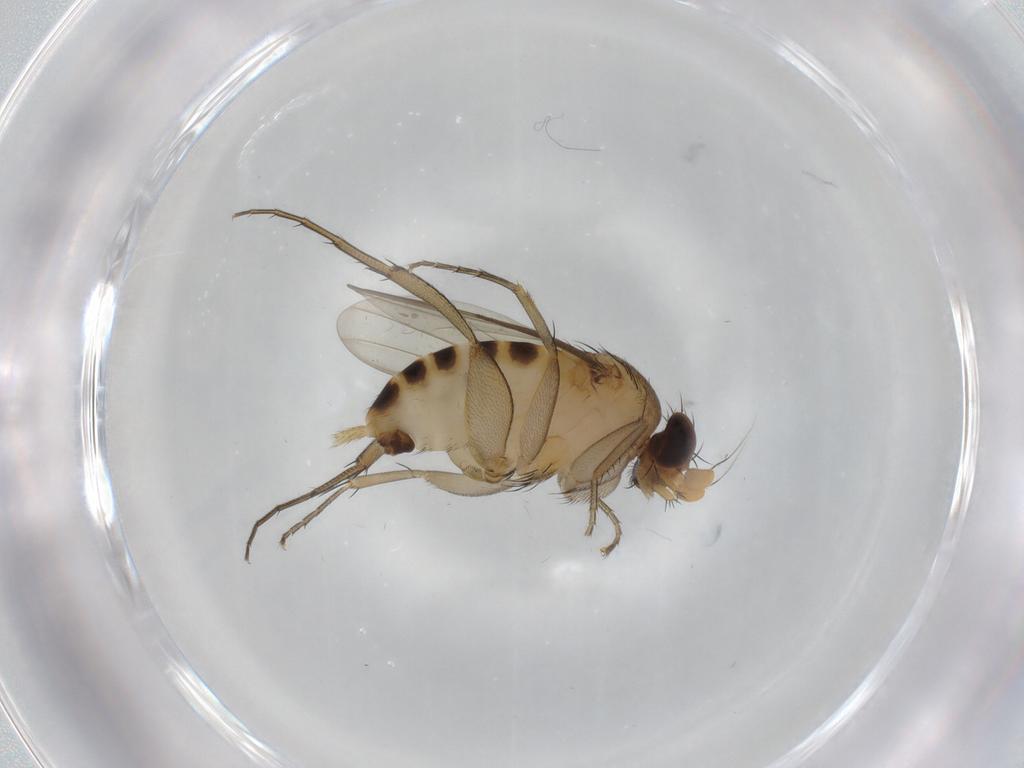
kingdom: Animalia
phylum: Arthropoda
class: Insecta
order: Diptera
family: Phoridae
